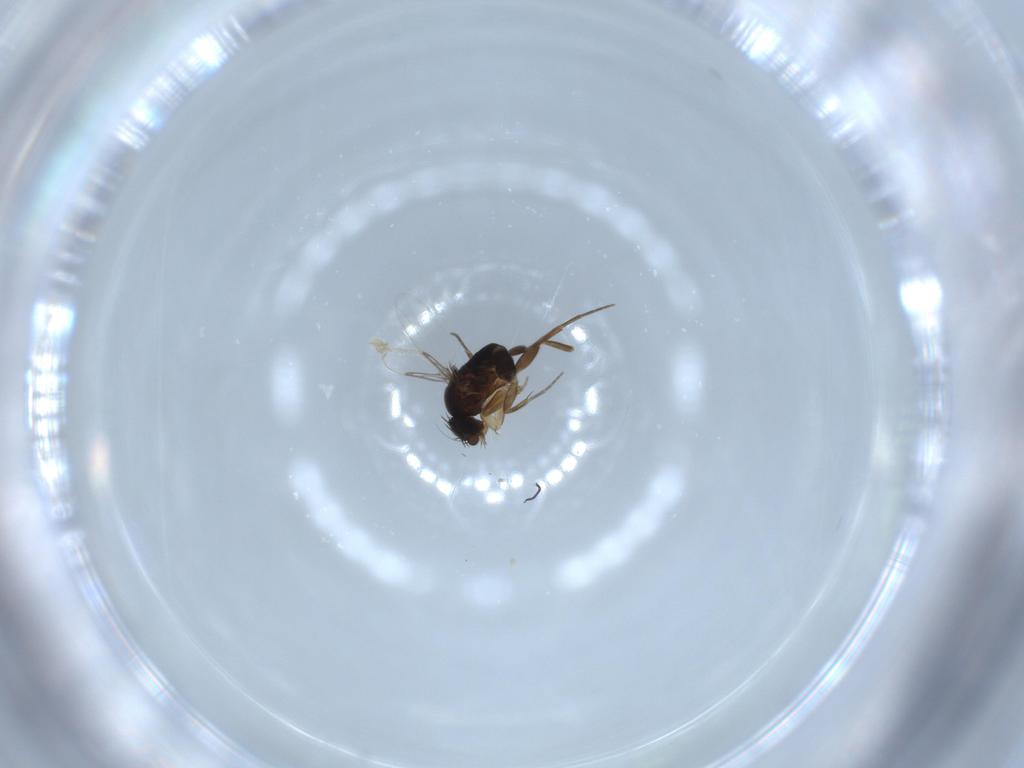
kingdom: Animalia
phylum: Arthropoda
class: Insecta
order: Diptera
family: Phoridae
